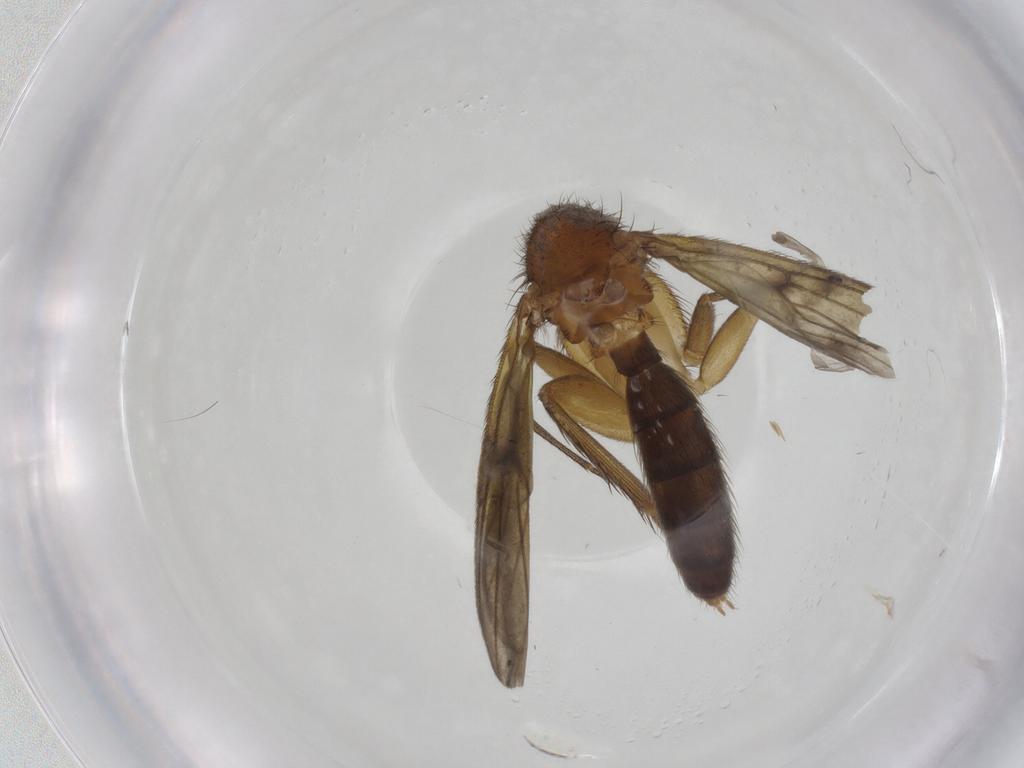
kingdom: Animalia
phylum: Arthropoda
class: Insecta
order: Diptera
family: Mycetophilidae
